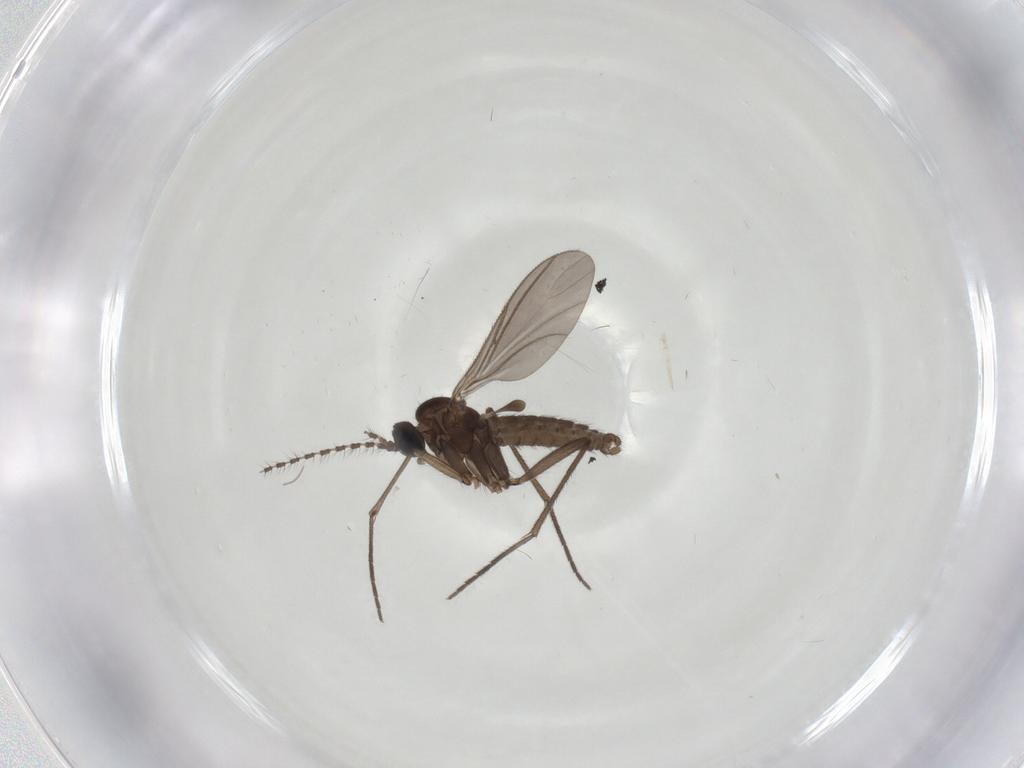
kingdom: Animalia
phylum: Arthropoda
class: Insecta
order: Diptera
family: Sciaridae
